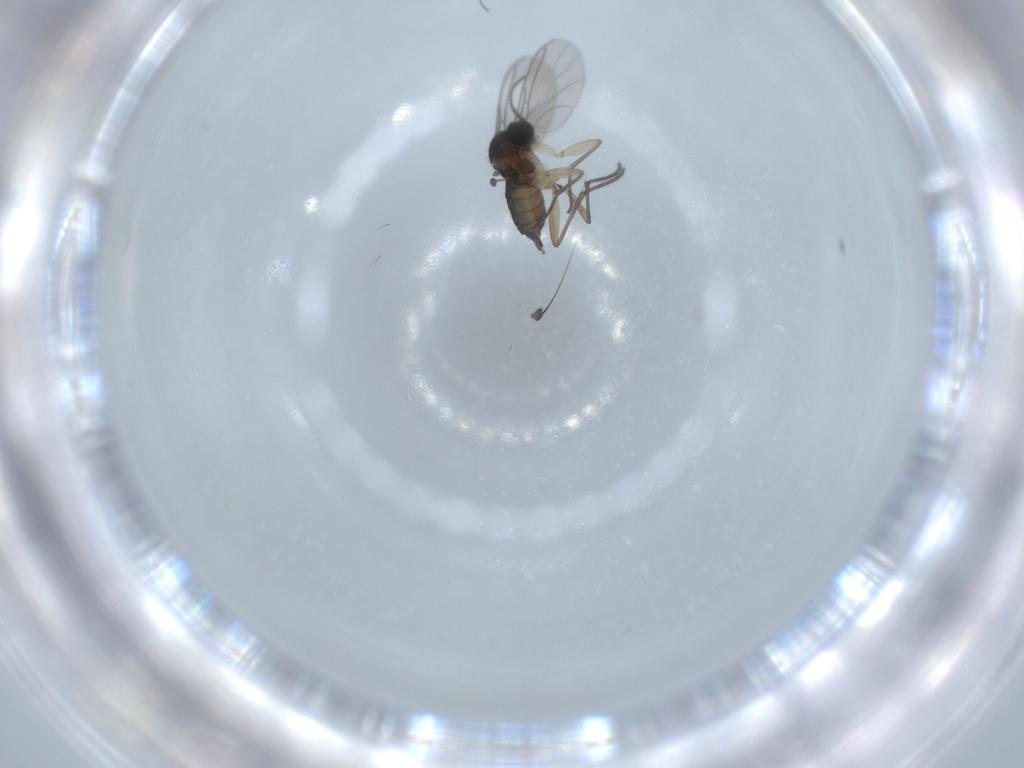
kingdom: Animalia
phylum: Arthropoda
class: Insecta
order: Diptera
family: Sciaridae
